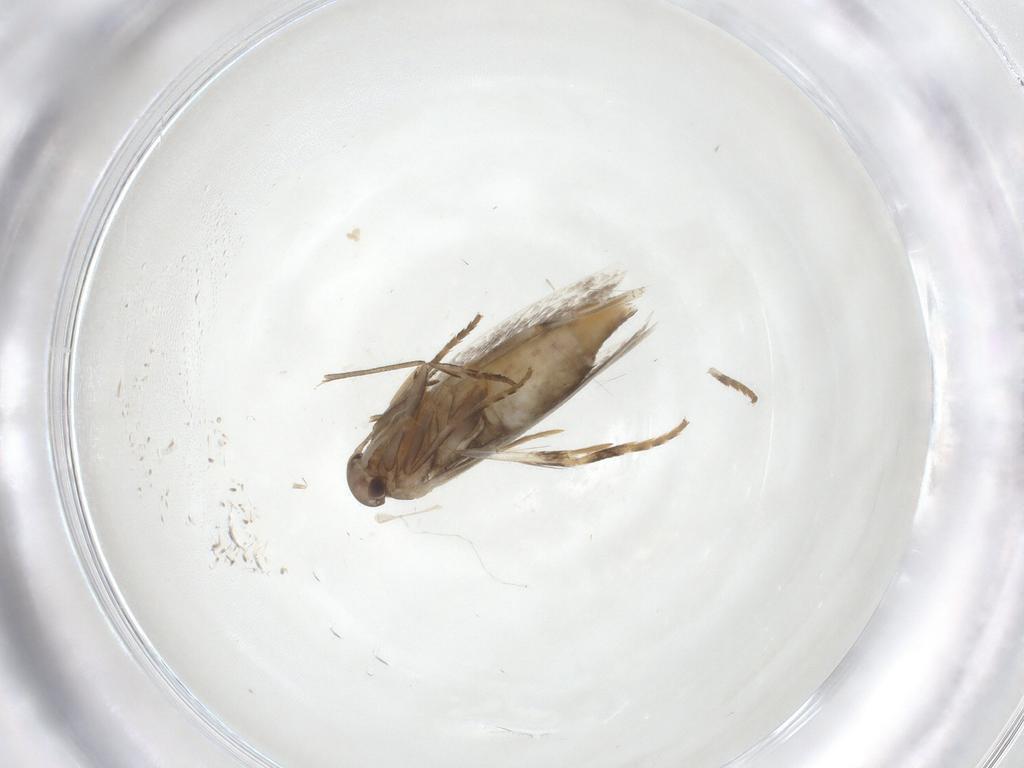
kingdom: Animalia
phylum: Arthropoda
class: Insecta
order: Lepidoptera
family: Elachistidae
